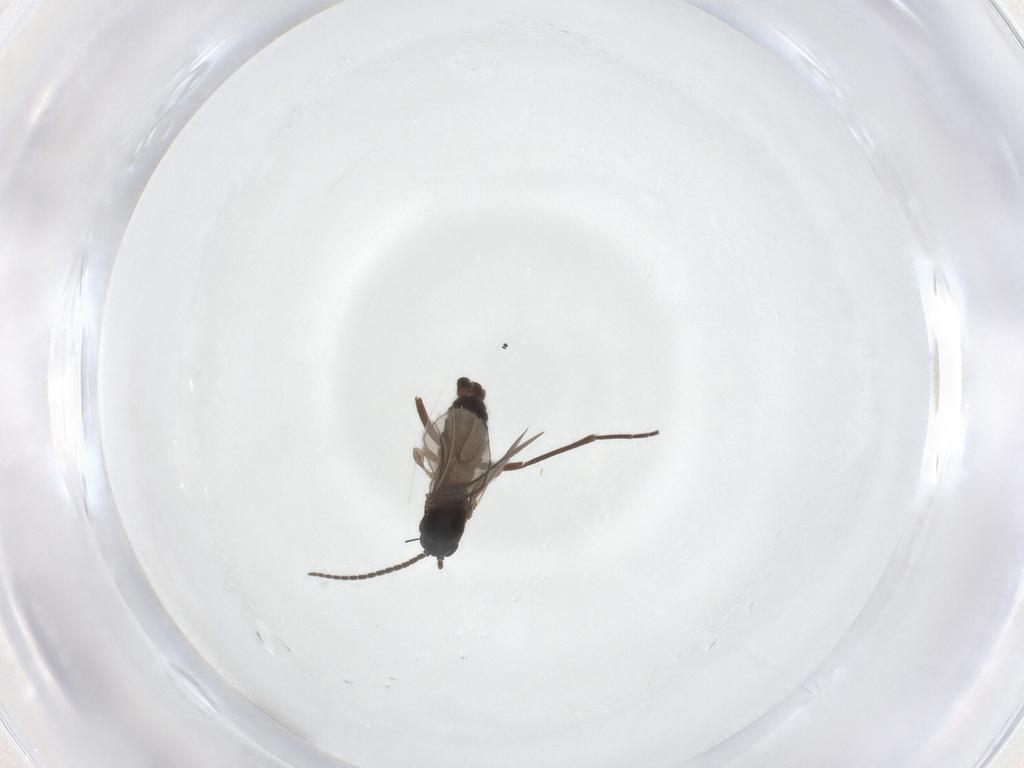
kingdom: Animalia
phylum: Arthropoda
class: Insecta
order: Diptera
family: Sciaridae
